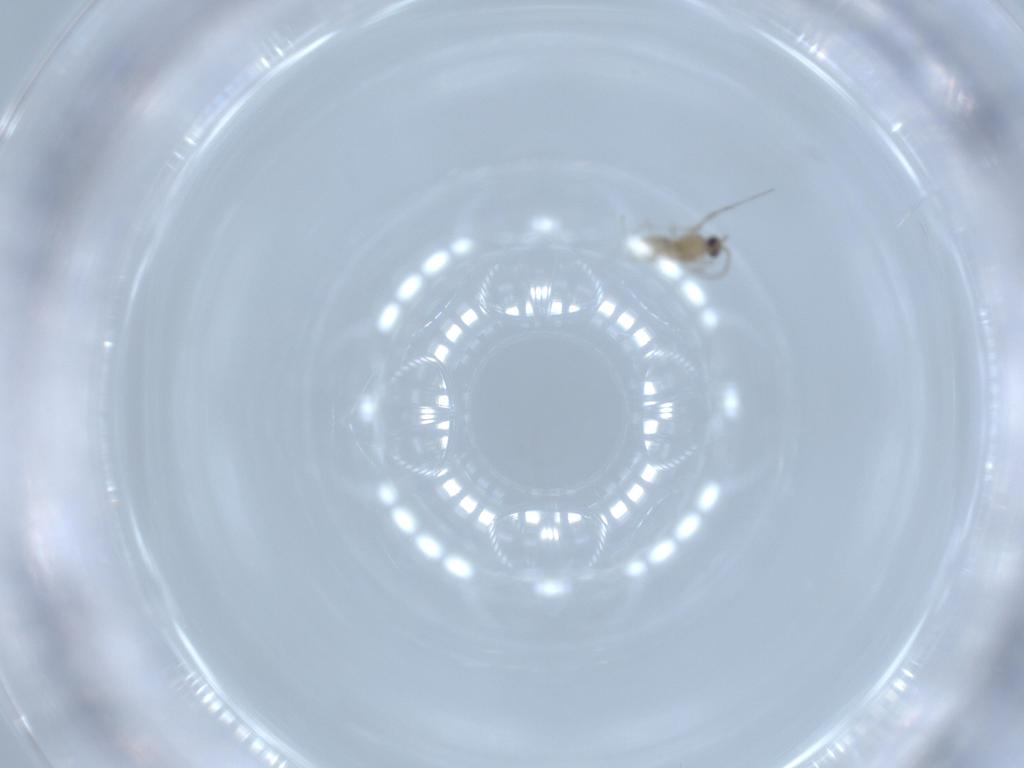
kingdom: Animalia
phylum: Arthropoda
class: Insecta
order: Diptera
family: Cecidomyiidae
